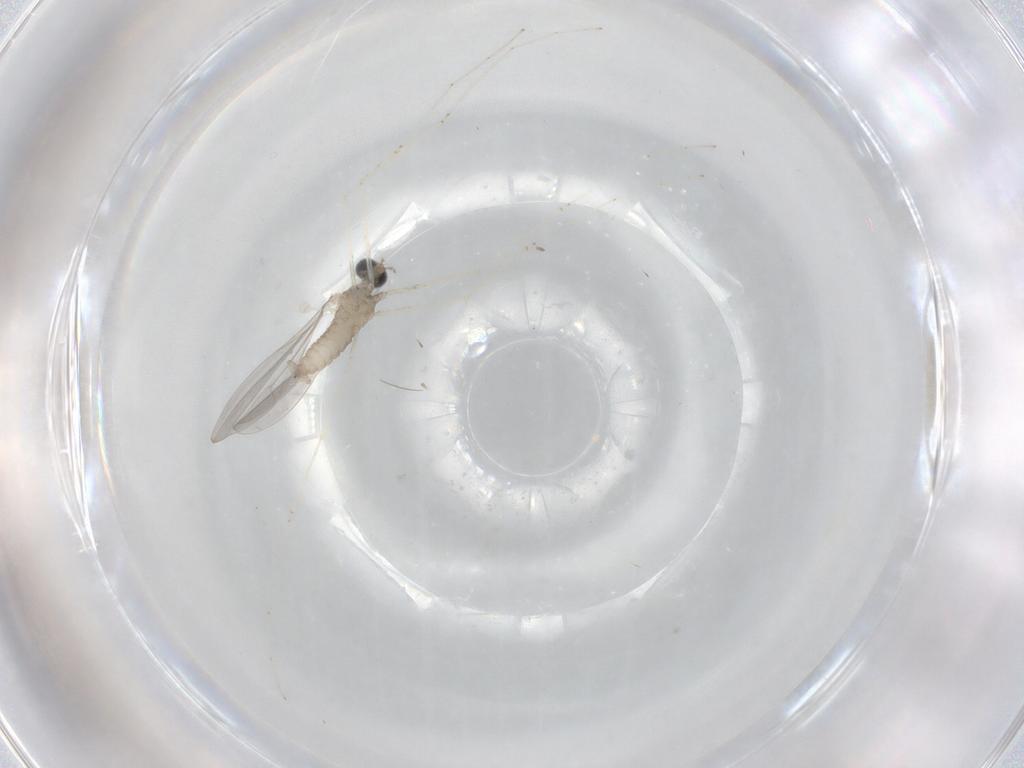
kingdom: Animalia
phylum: Arthropoda
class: Insecta
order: Diptera
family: Cecidomyiidae
